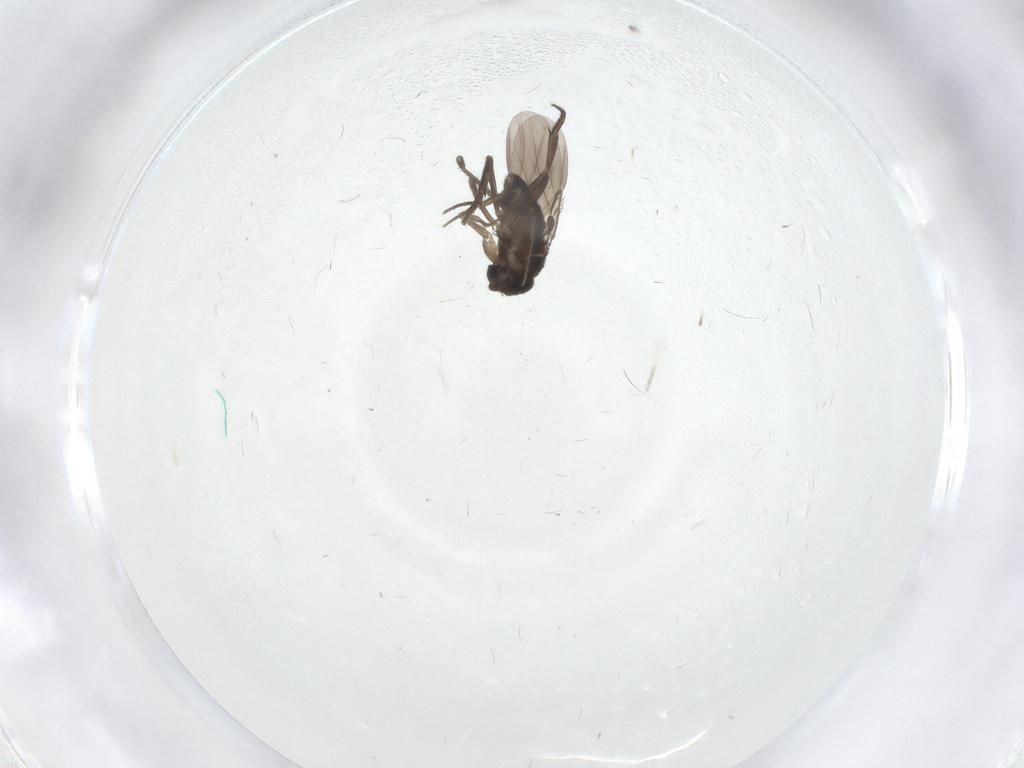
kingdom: Animalia
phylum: Arthropoda
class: Insecta
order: Diptera
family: Phoridae
